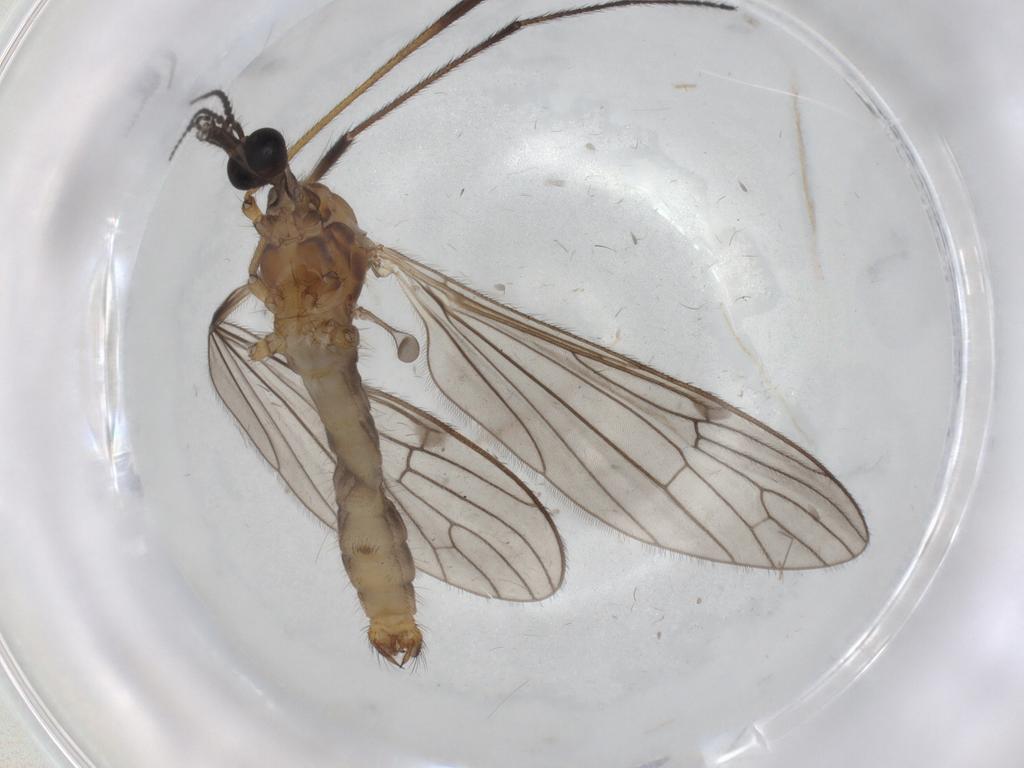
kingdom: Animalia
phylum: Arthropoda
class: Insecta
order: Diptera
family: Limoniidae
